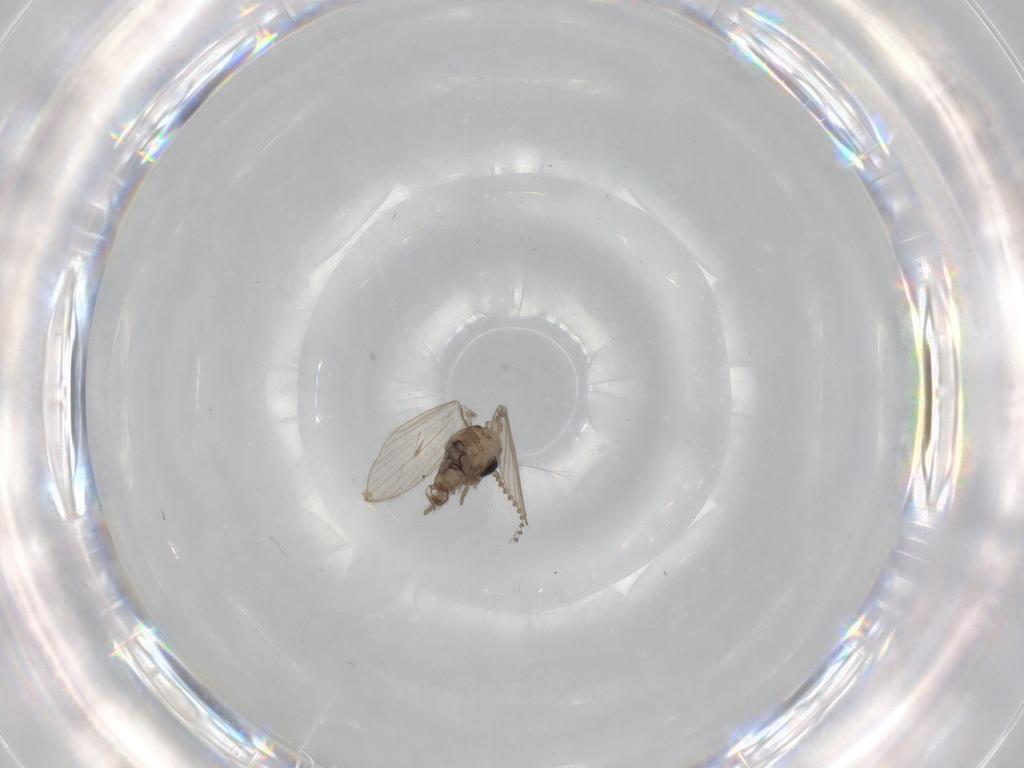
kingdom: Animalia
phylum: Arthropoda
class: Insecta
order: Diptera
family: Psychodidae
